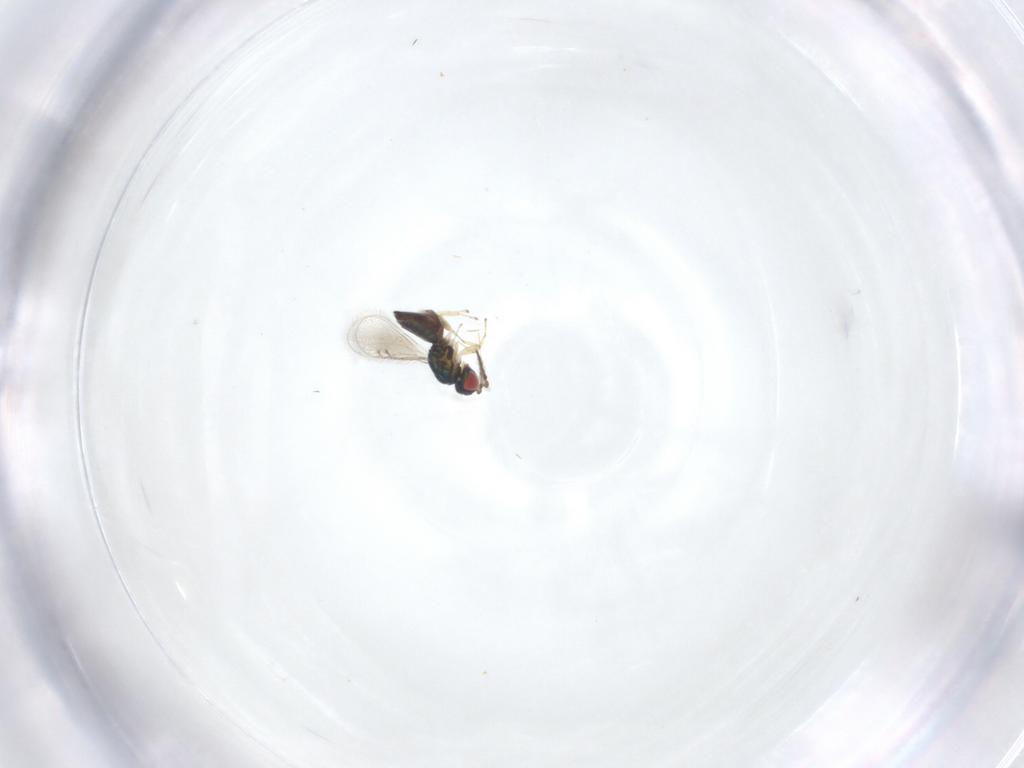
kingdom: Animalia
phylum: Arthropoda
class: Insecta
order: Hymenoptera
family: Eulophidae
